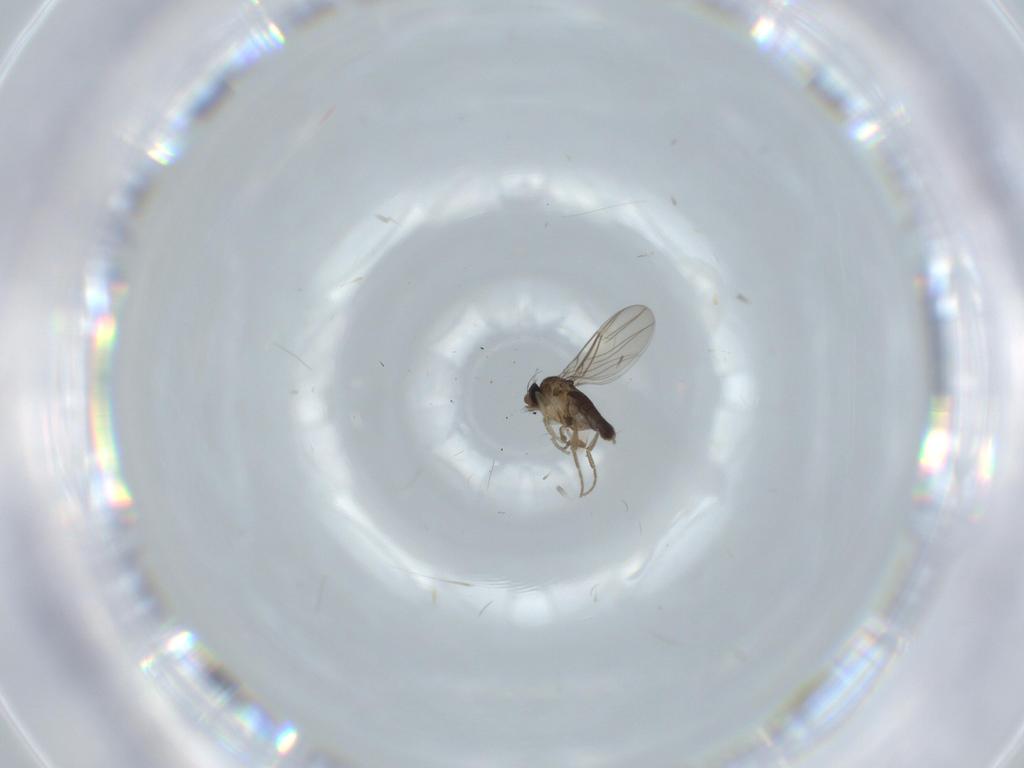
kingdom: Animalia
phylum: Arthropoda
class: Insecta
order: Diptera
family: Phoridae
